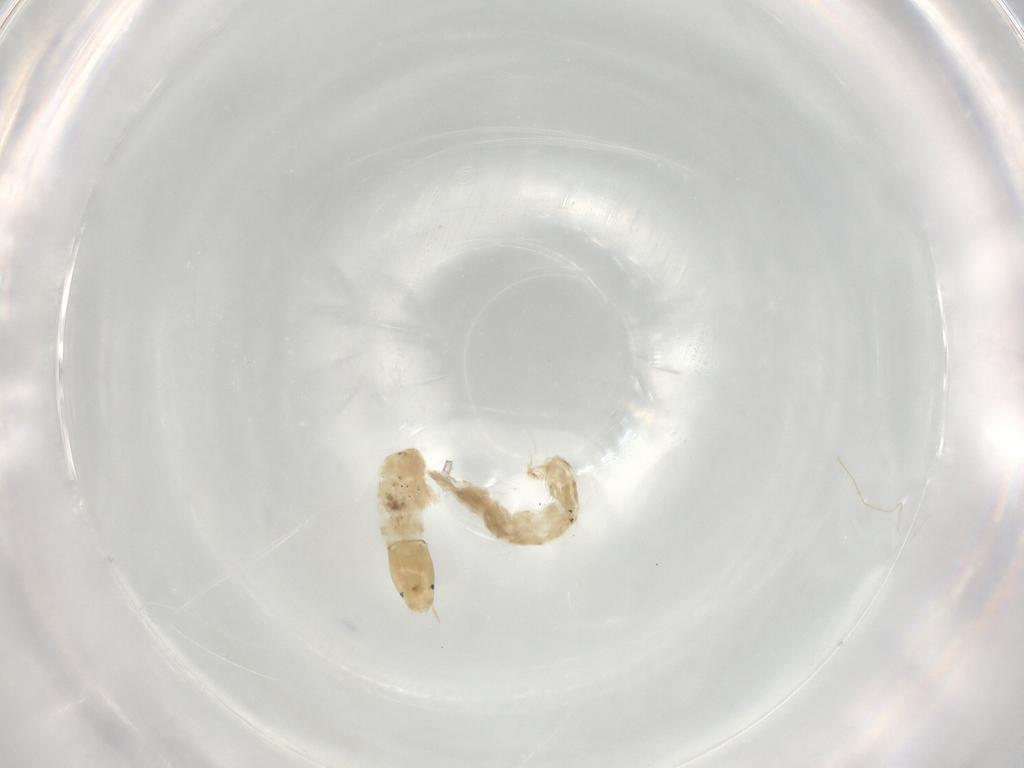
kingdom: Animalia
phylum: Arthropoda
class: Insecta
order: Diptera
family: Chironomidae
